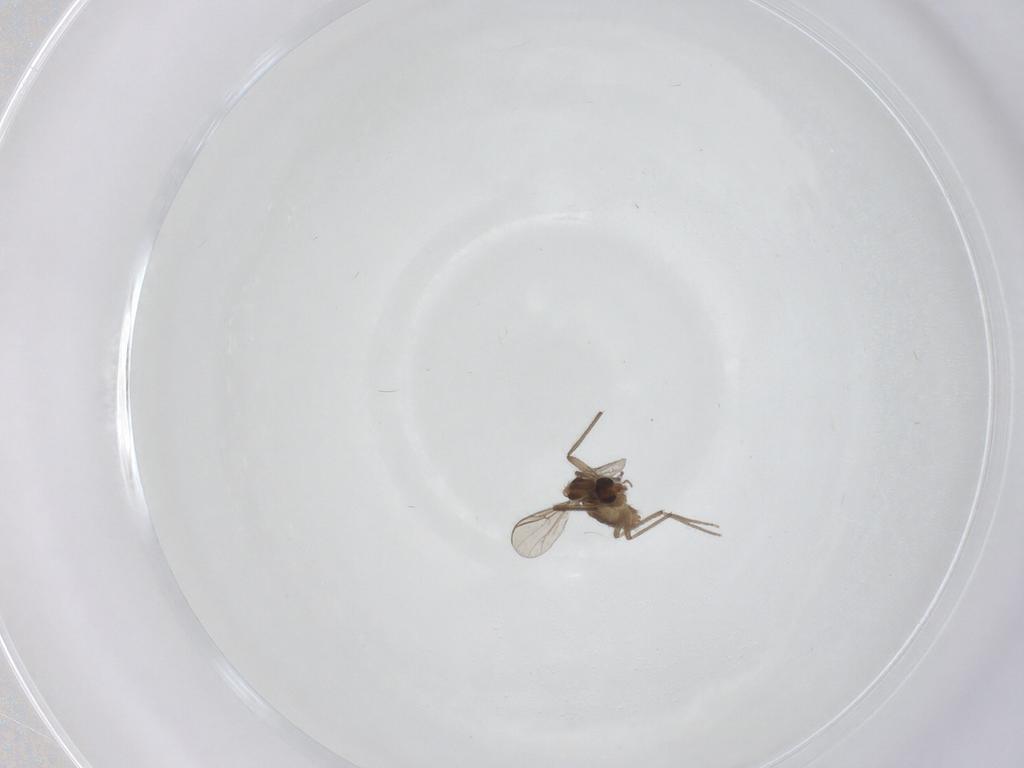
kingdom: Animalia
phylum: Arthropoda
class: Insecta
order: Diptera
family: Chironomidae
